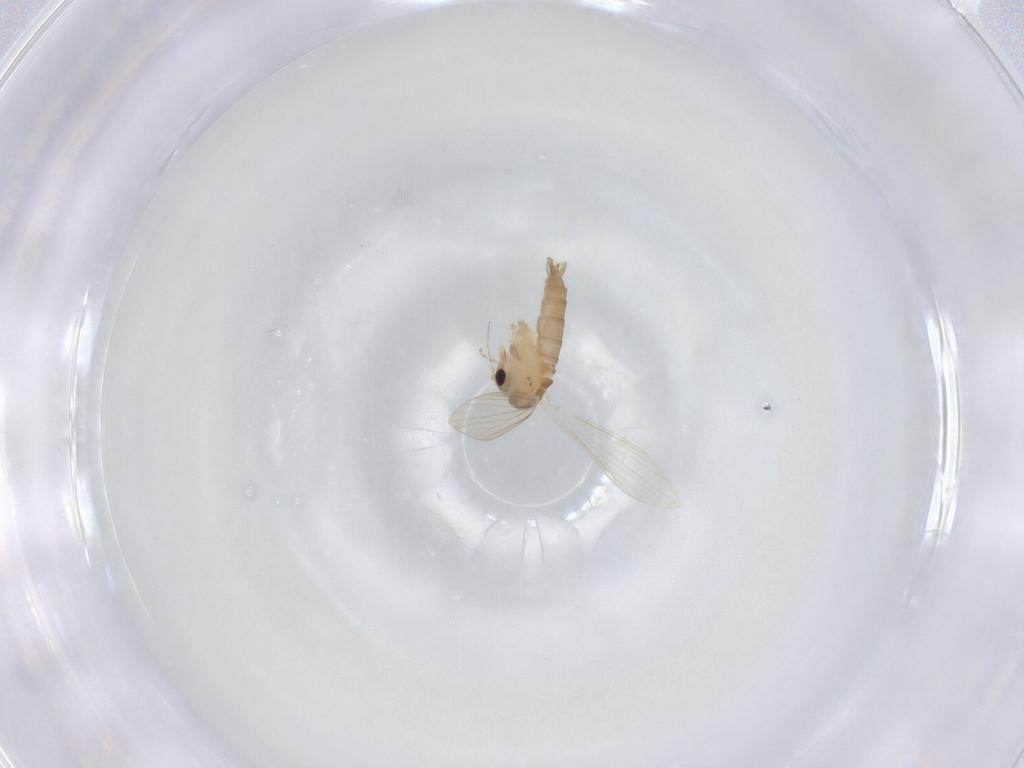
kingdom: Animalia
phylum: Arthropoda
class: Insecta
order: Diptera
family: Psychodidae
